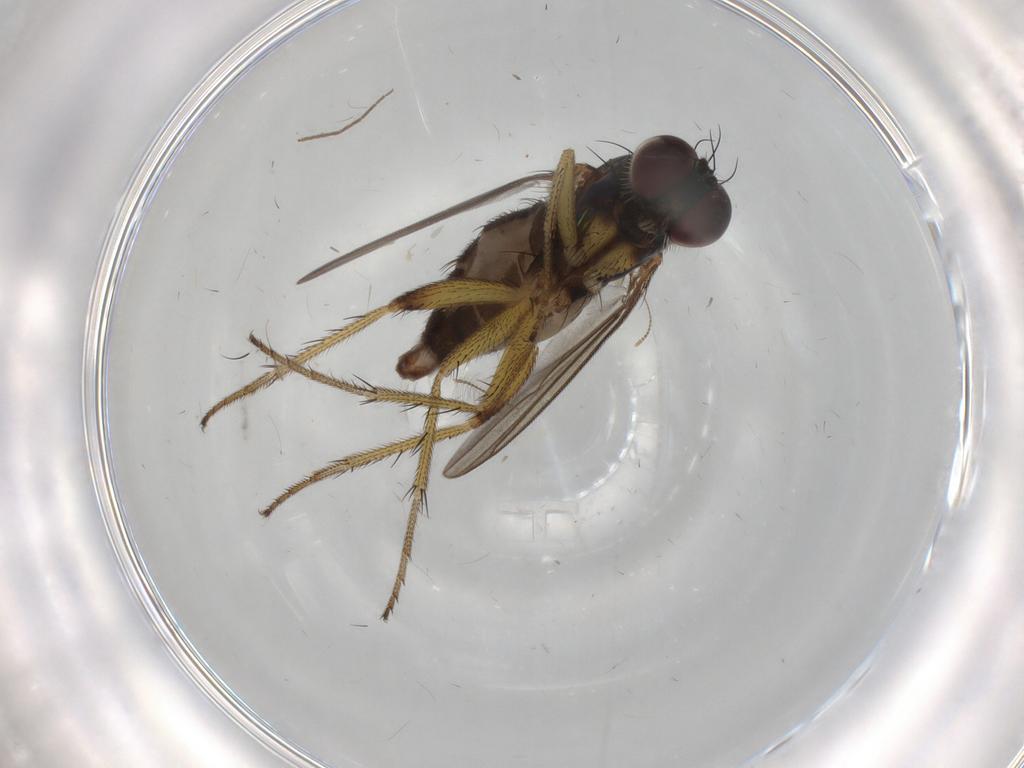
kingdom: Animalia
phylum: Arthropoda
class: Insecta
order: Diptera
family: Dolichopodidae
